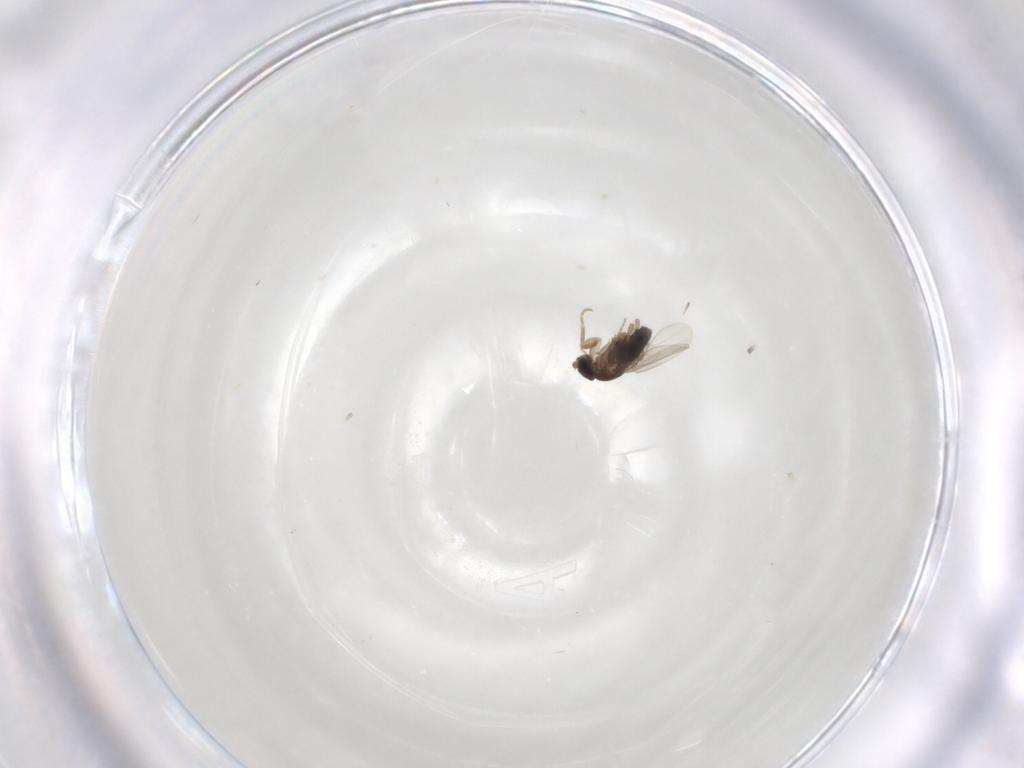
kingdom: Animalia
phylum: Arthropoda
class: Insecta
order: Diptera
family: Phoridae
